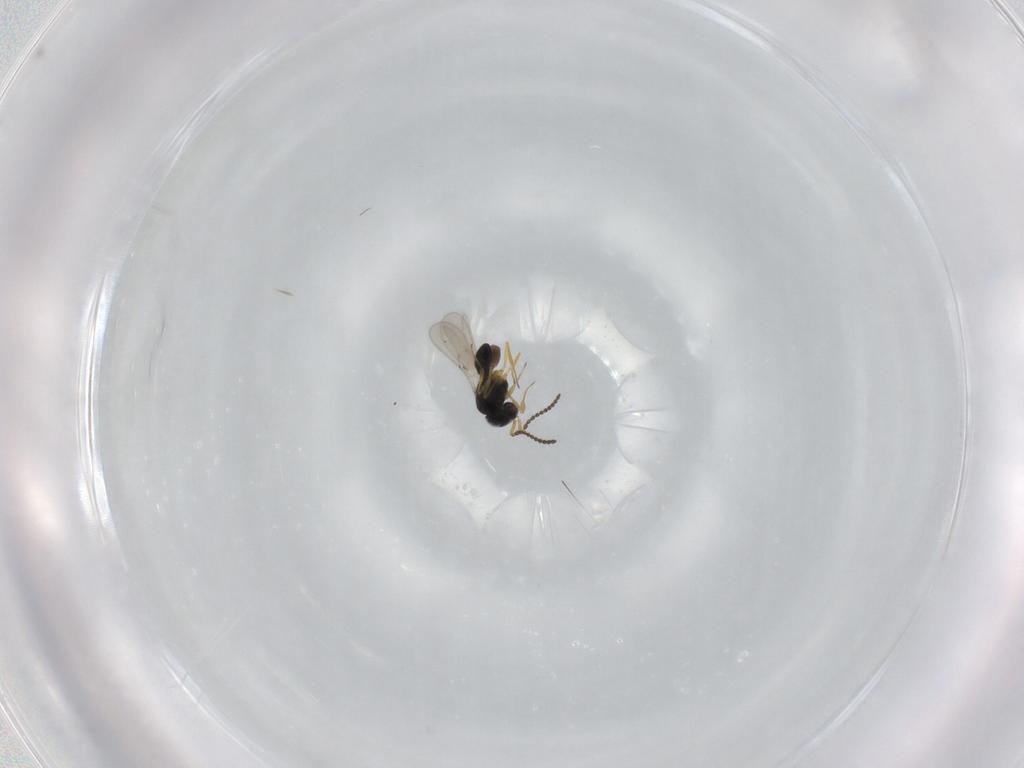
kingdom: Animalia
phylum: Arthropoda
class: Insecta
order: Hymenoptera
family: Scelionidae
